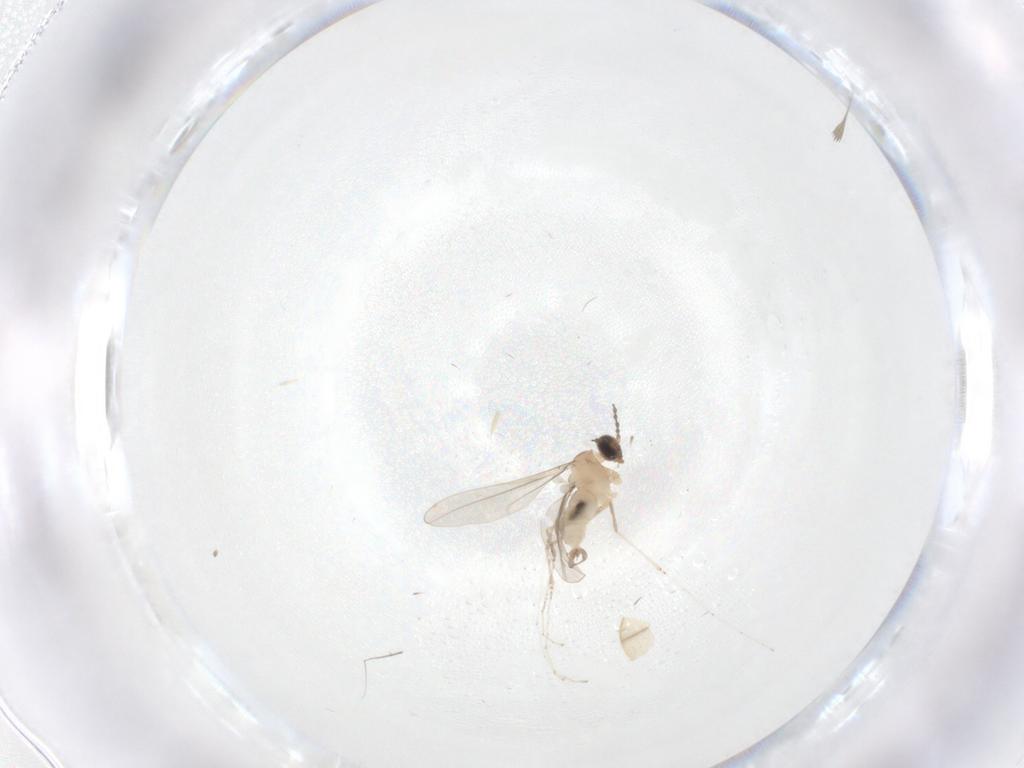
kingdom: Animalia
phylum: Arthropoda
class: Insecta
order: Diptera
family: Cecidomyiidae
